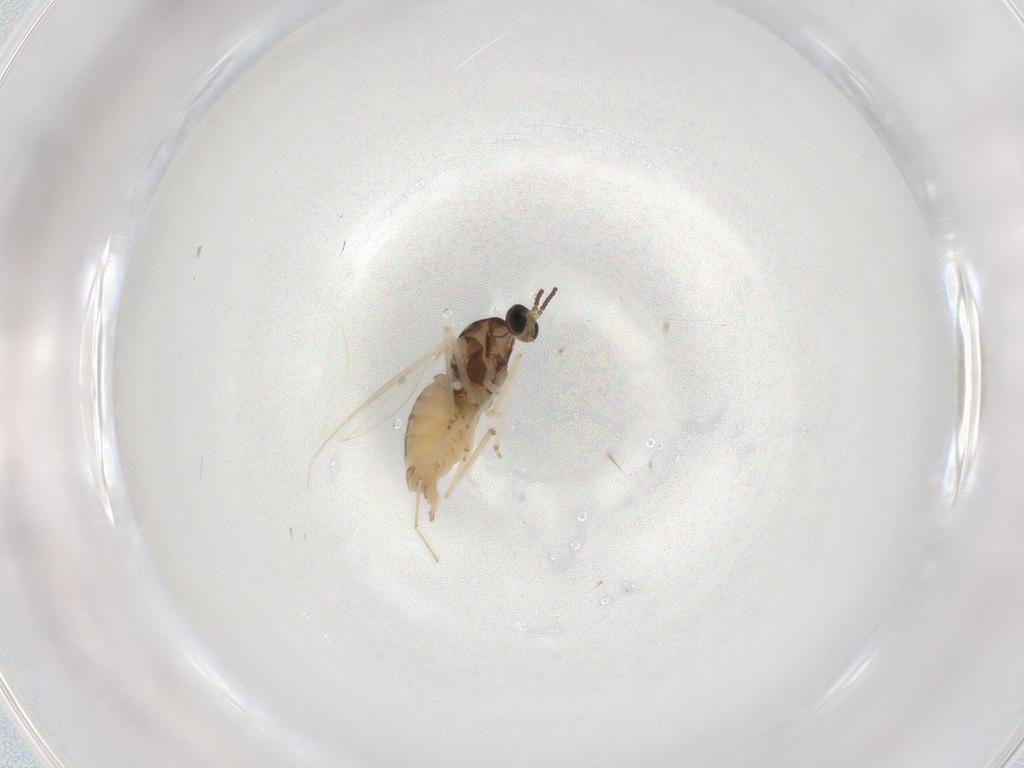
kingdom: Animalia
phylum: Arthropoda
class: Insecta
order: Diptera
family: Cecidomyiidae
